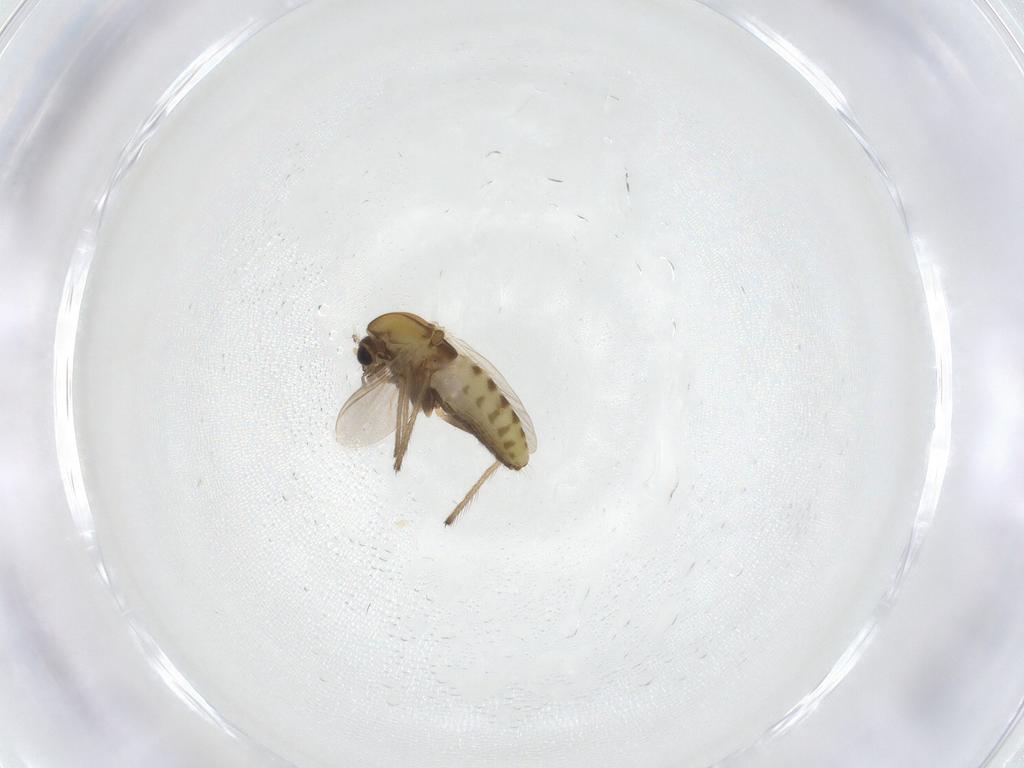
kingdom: Animalia
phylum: Arthropoda
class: Insecta
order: Diptera
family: Chironomidae
